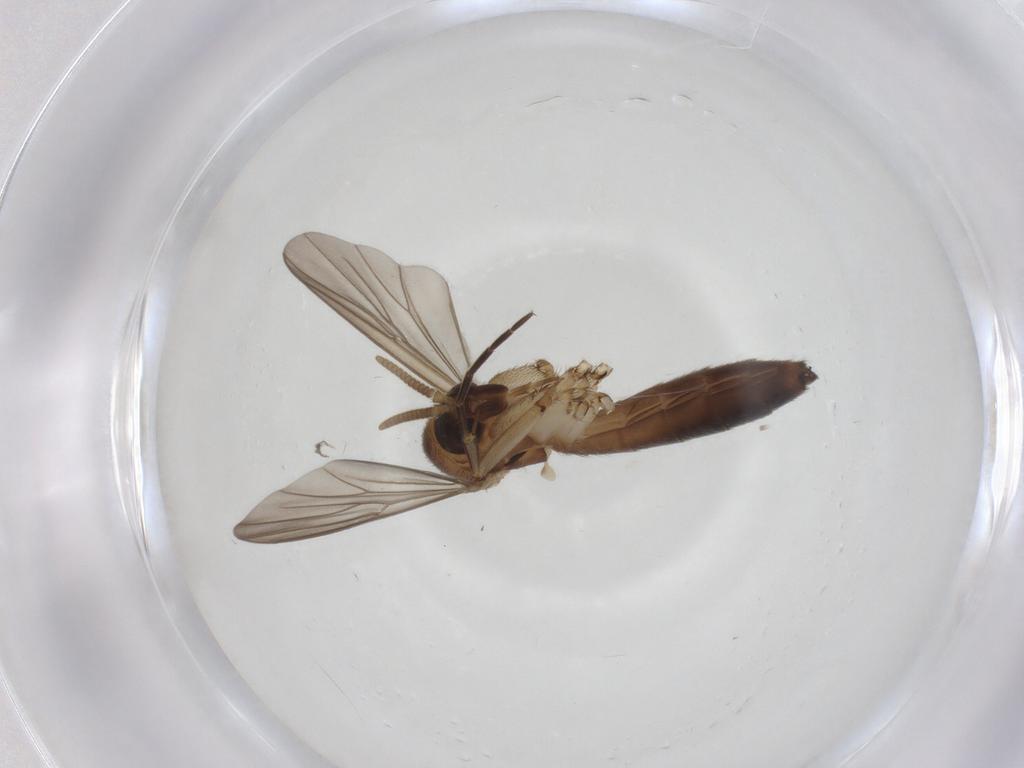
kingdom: Animalia
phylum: Arthropoda
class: Insecta
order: Diptera
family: Mycetophilidae
